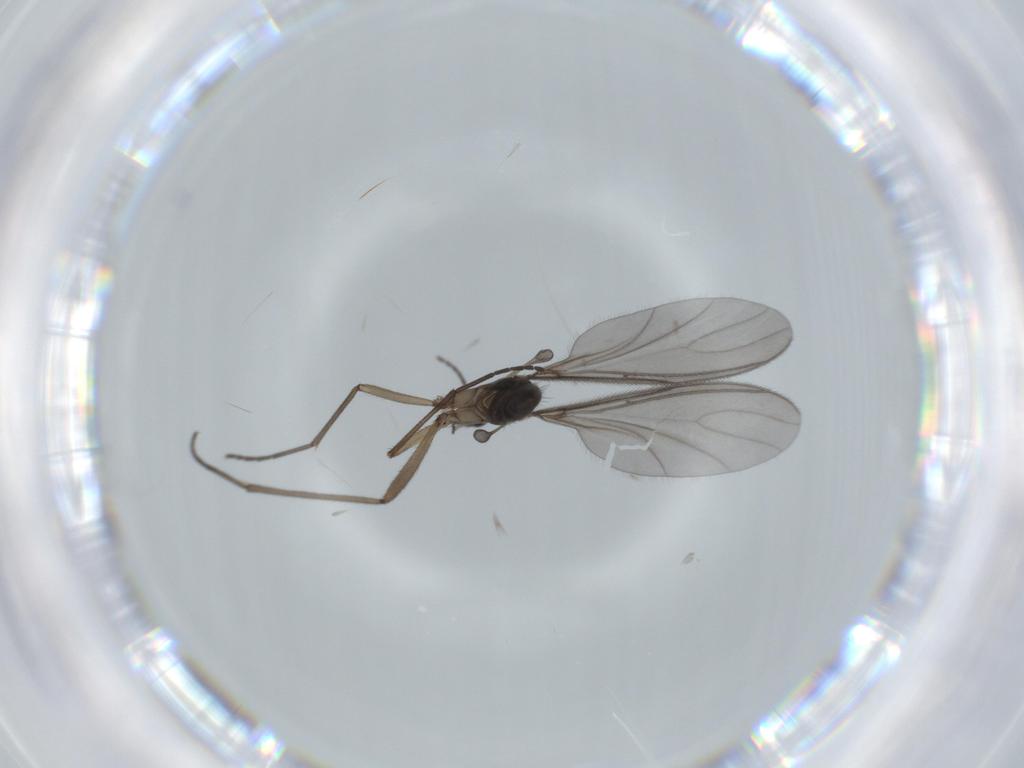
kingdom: Animalia
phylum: Arthropoda
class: Insecta
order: Diptera
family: Sciaridae
